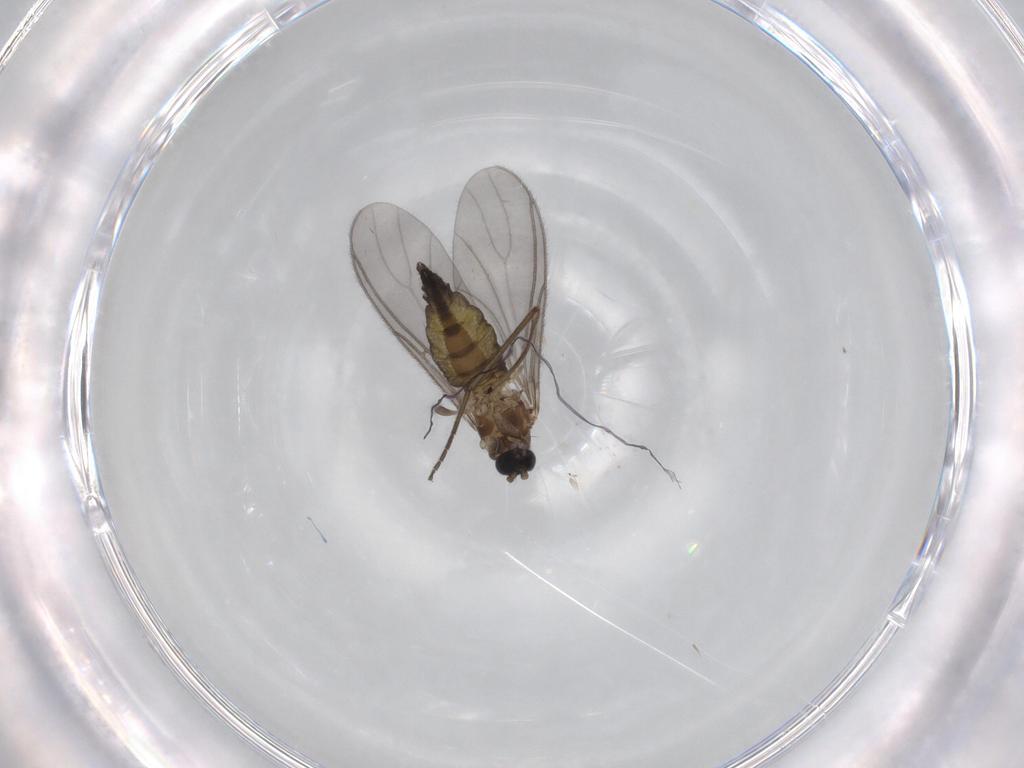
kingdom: Animalia
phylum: Arthropoda
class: Insecta
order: Diptera
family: Sciaridae
